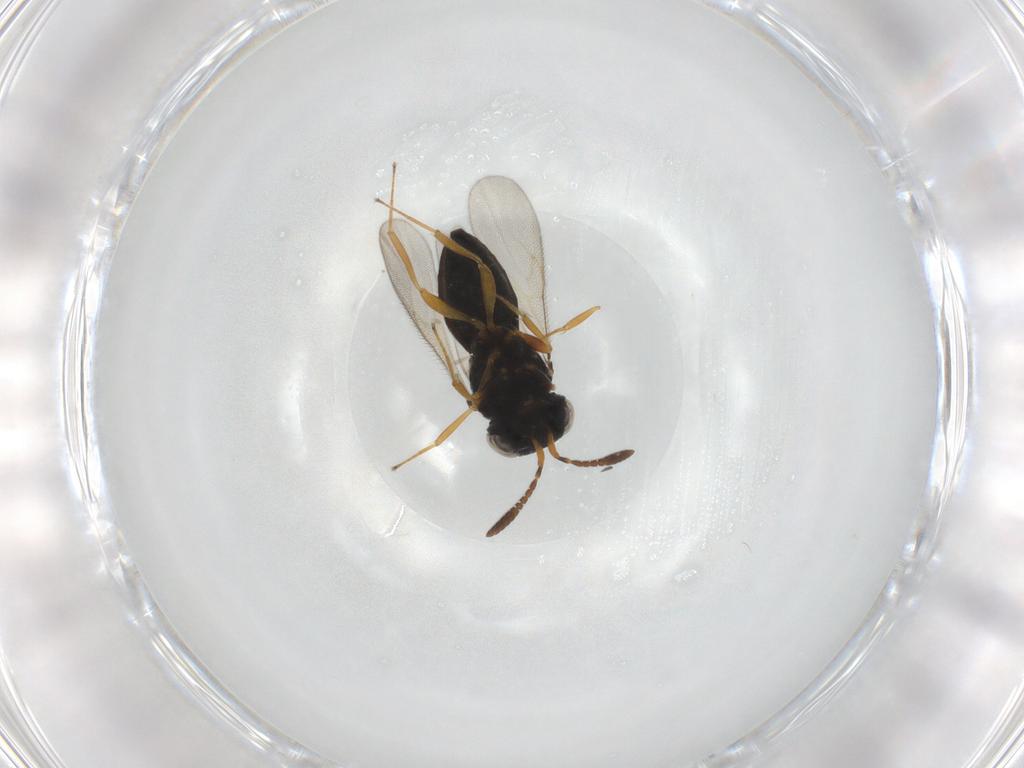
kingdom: Animalia
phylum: Arthropoda
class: Insecta
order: Hymenoptera
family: Scelionidae
